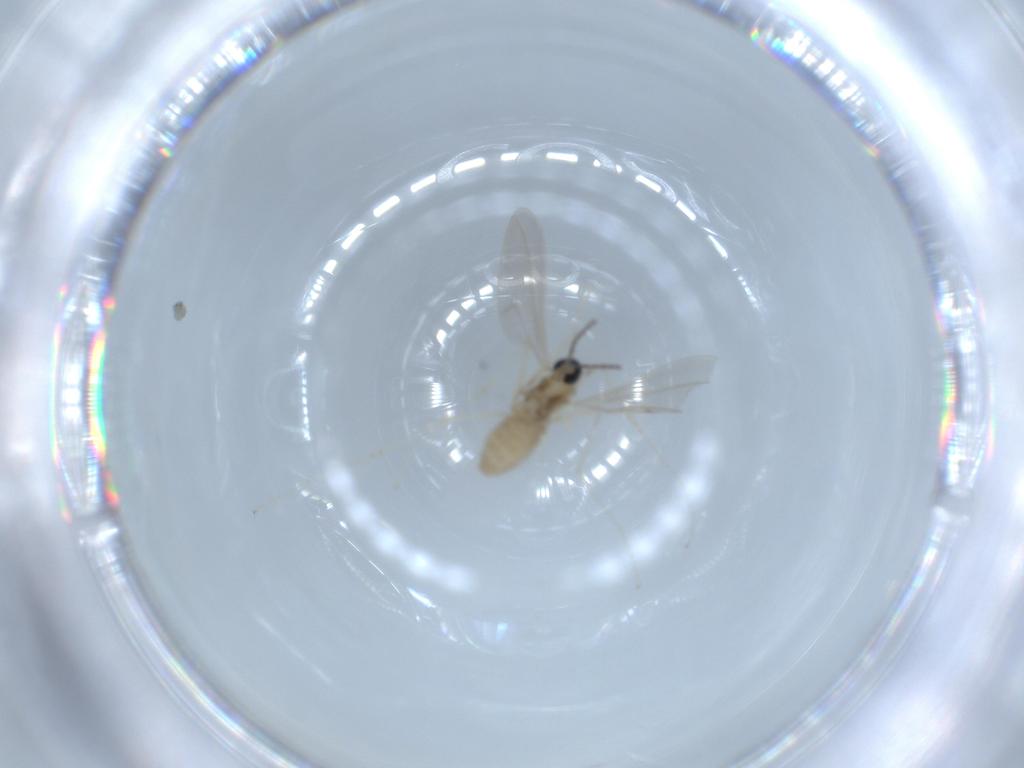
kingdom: Animalia
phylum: Arthropoda
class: Insecta
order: Diptera
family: Cecidomyiidae
